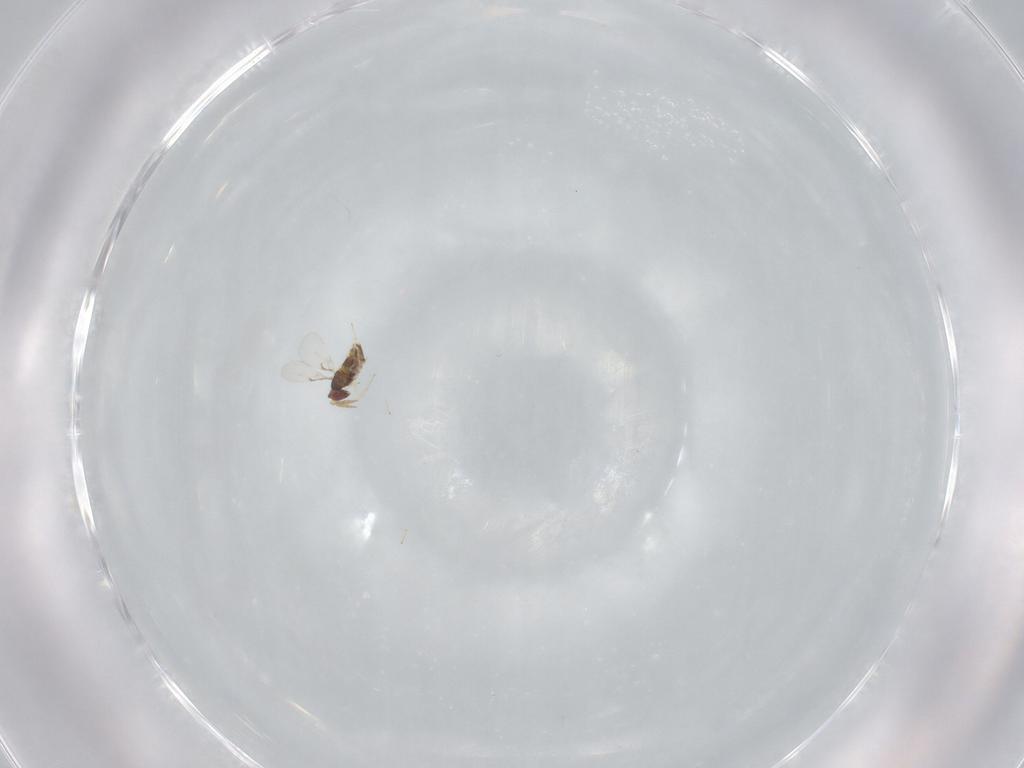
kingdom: Animalia
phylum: Arthropoda
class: Insecta
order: Hymenoptera
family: Trichogrammatidae
